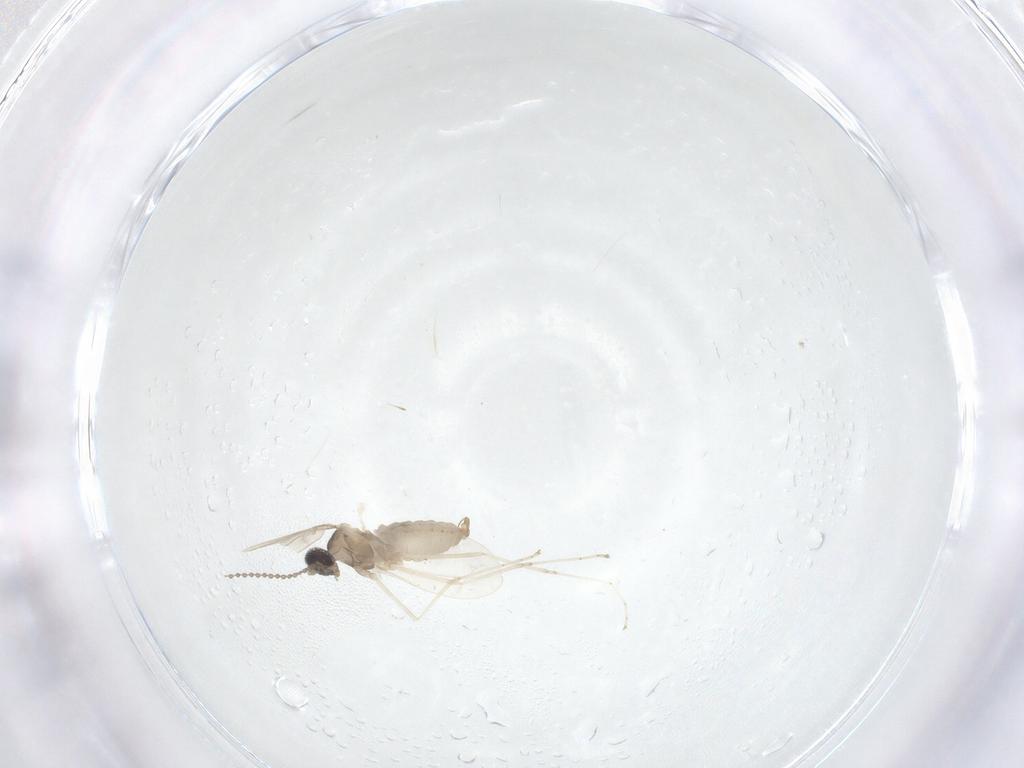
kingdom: Animalia
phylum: Arthropoda
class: Insecta
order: Diptera
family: Cecidomyiidae
